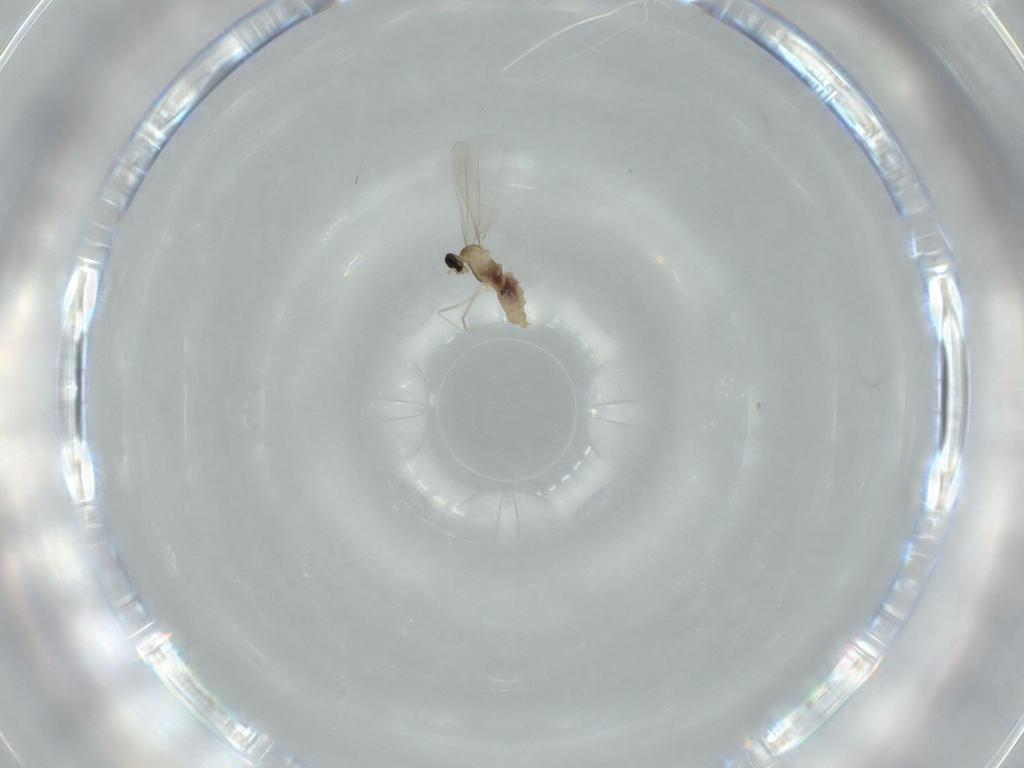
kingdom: Animalia
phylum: Arthropoda
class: Insecta
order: Diptera
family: Cecidomyiidae
